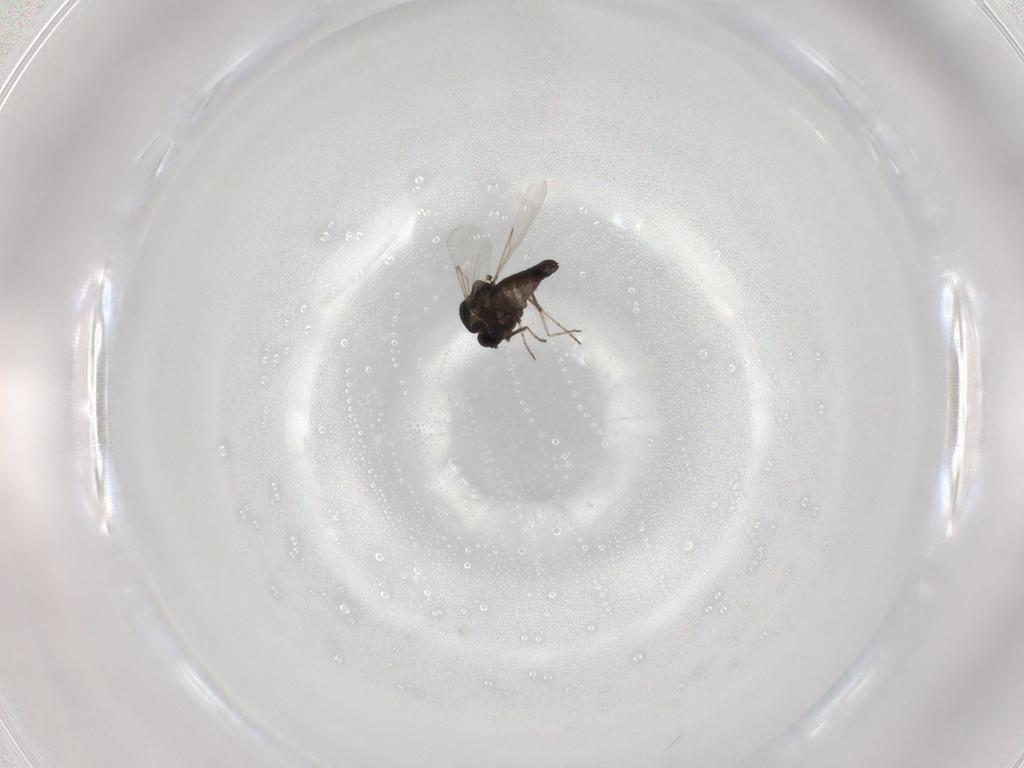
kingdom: Animalia
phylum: Arthropoda
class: Insecta
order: Diptera
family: Ceratopogonidae
